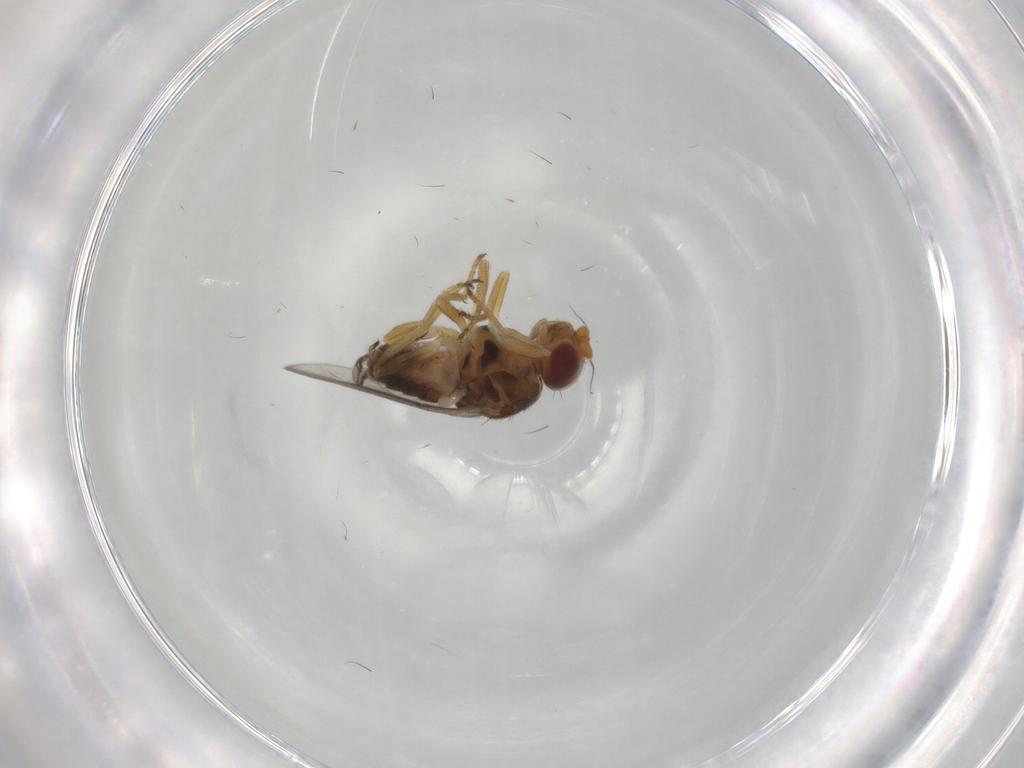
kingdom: Animalia
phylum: Arthropoda
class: Insecta
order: Diptera
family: Chloropidae
